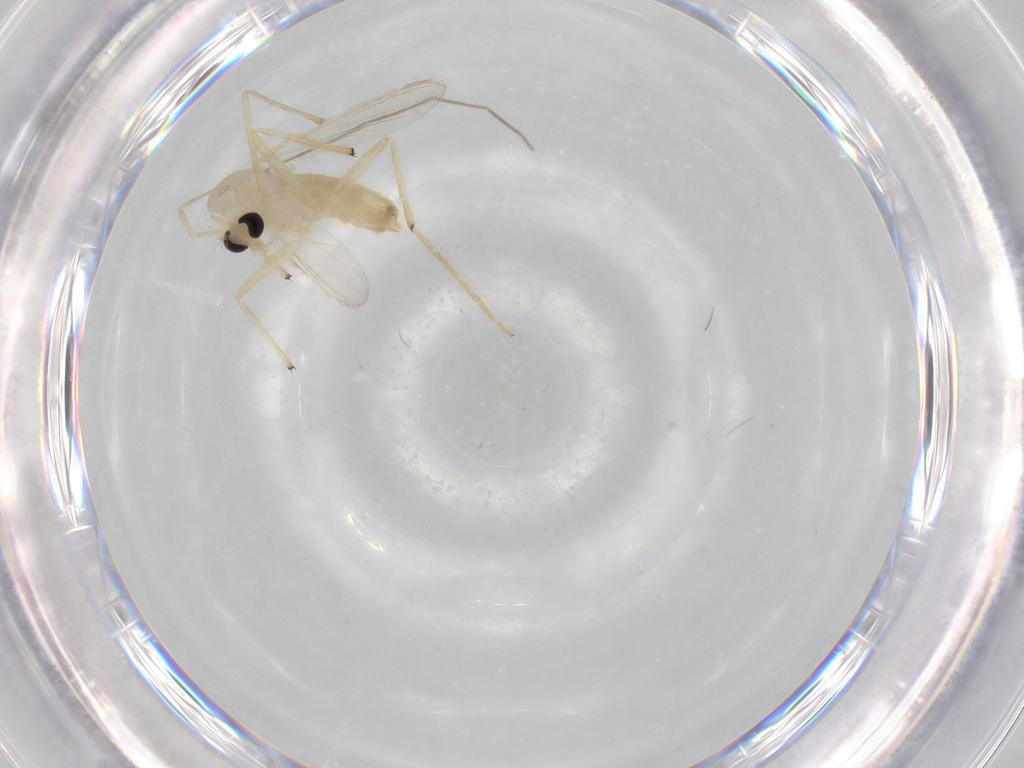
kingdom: Animalia
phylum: Arthropoda
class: Insecta
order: Diptera
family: Chironomidae
